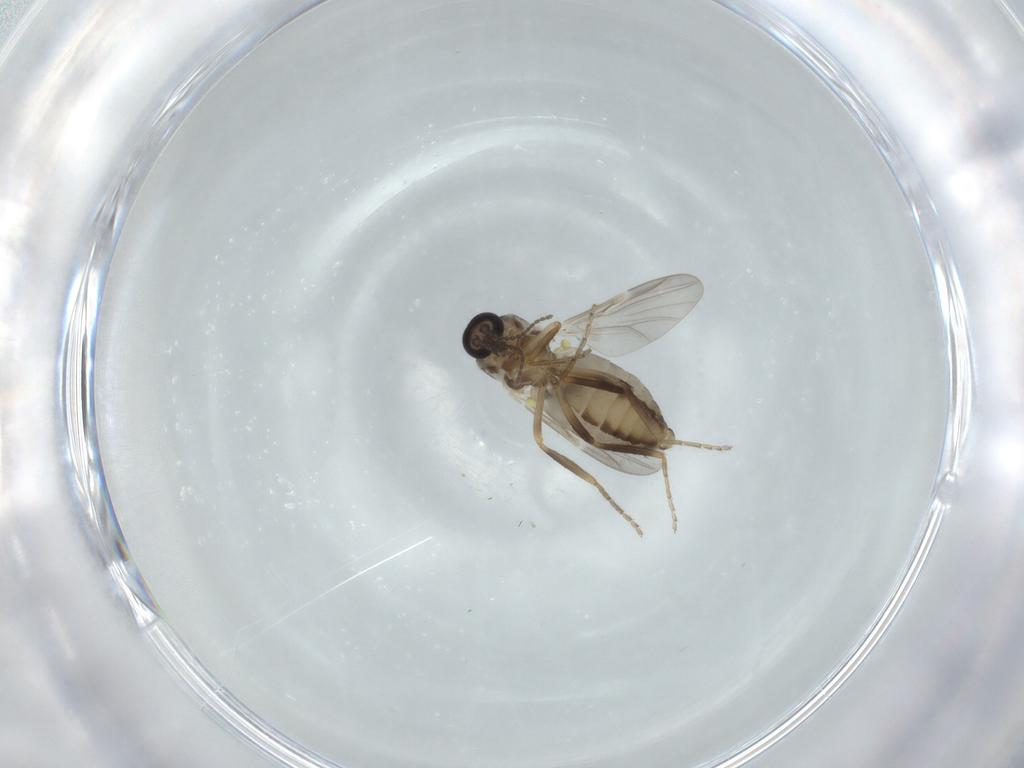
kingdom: Animalia
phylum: Arthropoda
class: Insecta
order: Diptera
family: Ceratopogonidae
